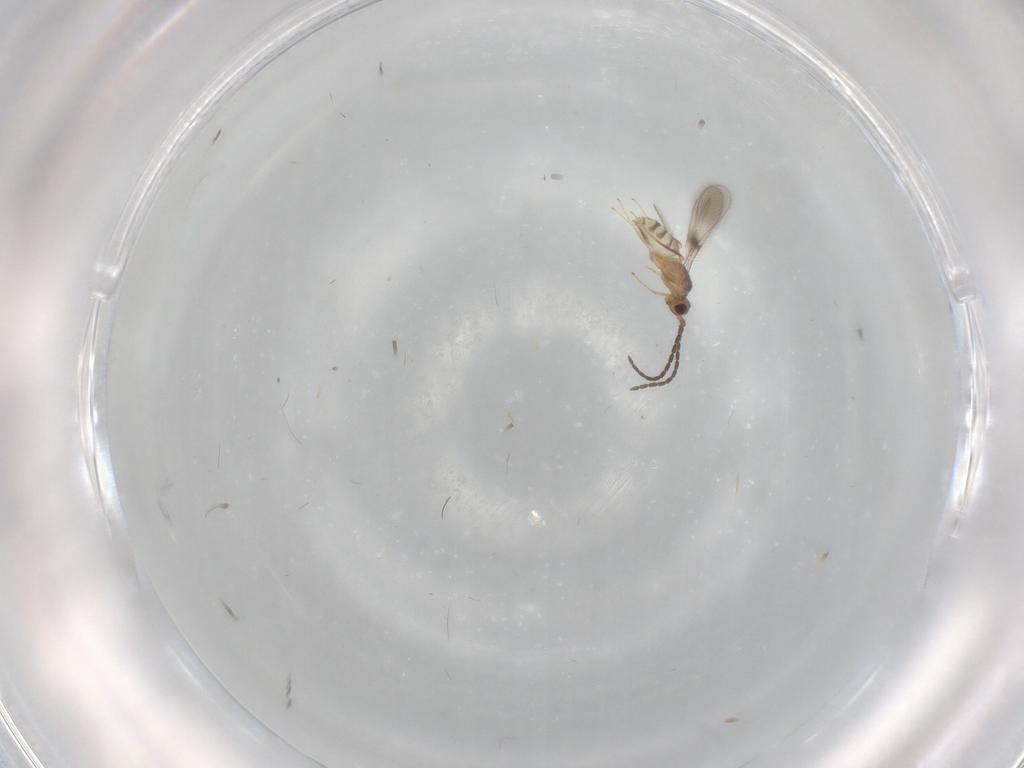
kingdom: Animalia
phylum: Arthropoda
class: Insecta
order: Hymenoptera
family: Mymaridae
